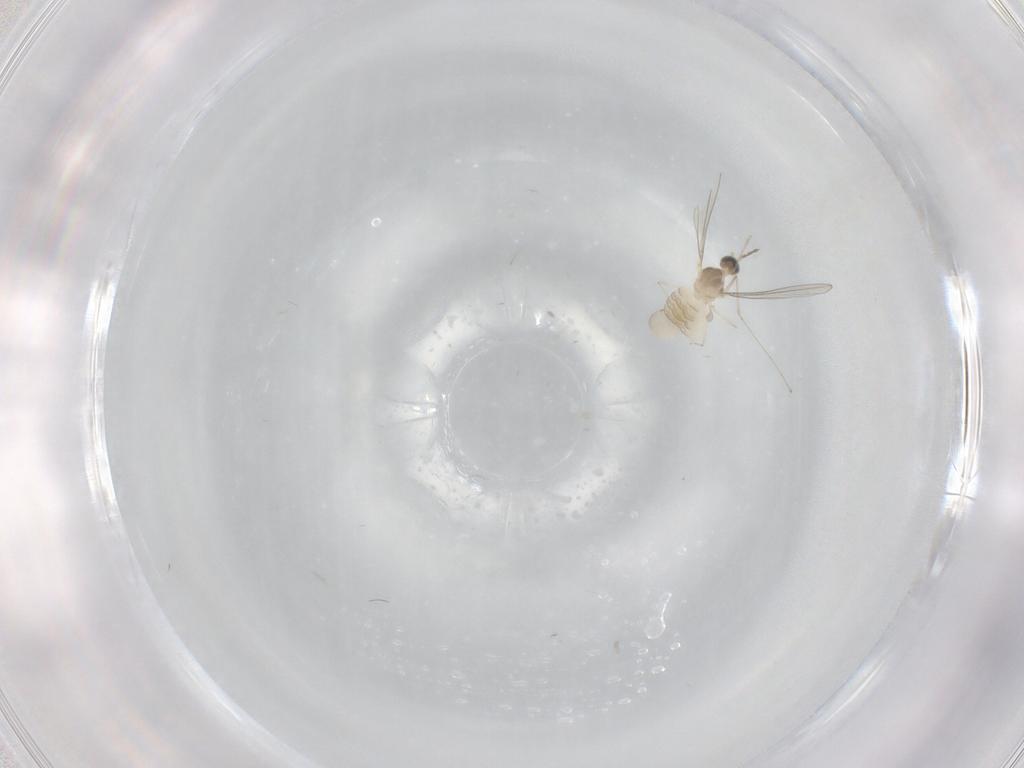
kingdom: Animalia
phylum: Arthropoda
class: Insecta
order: Diptera
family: Cecidomyiidae
